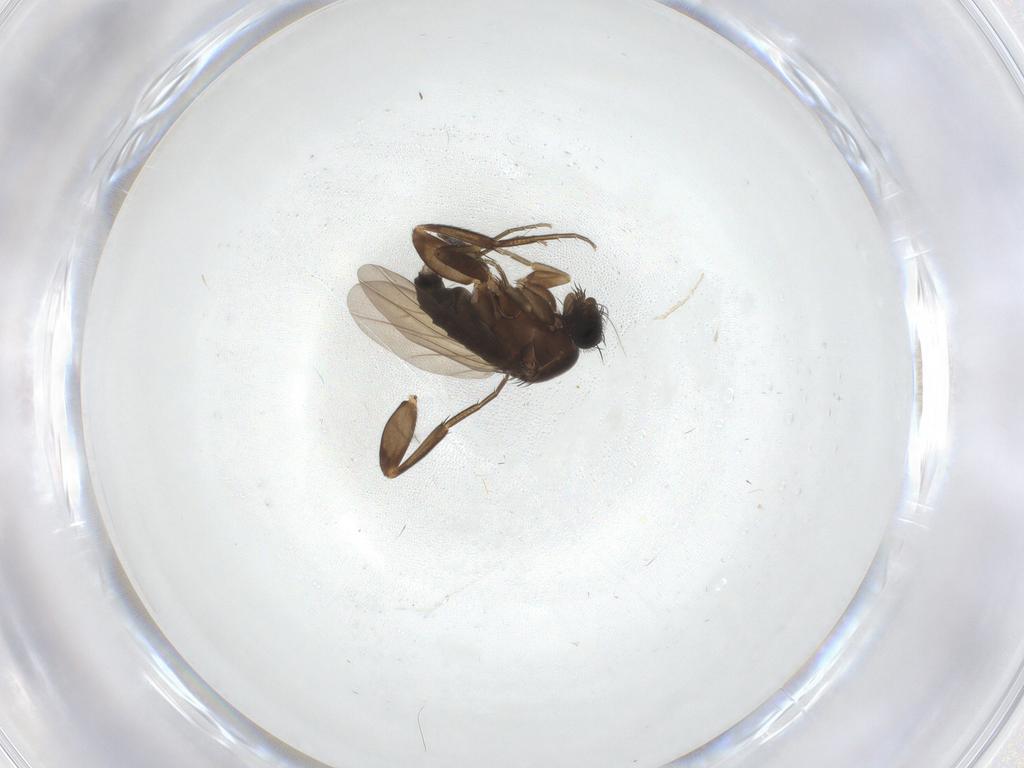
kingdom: Animalia
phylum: Arthropoda
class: Insecta
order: Diptera
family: Phoridae
